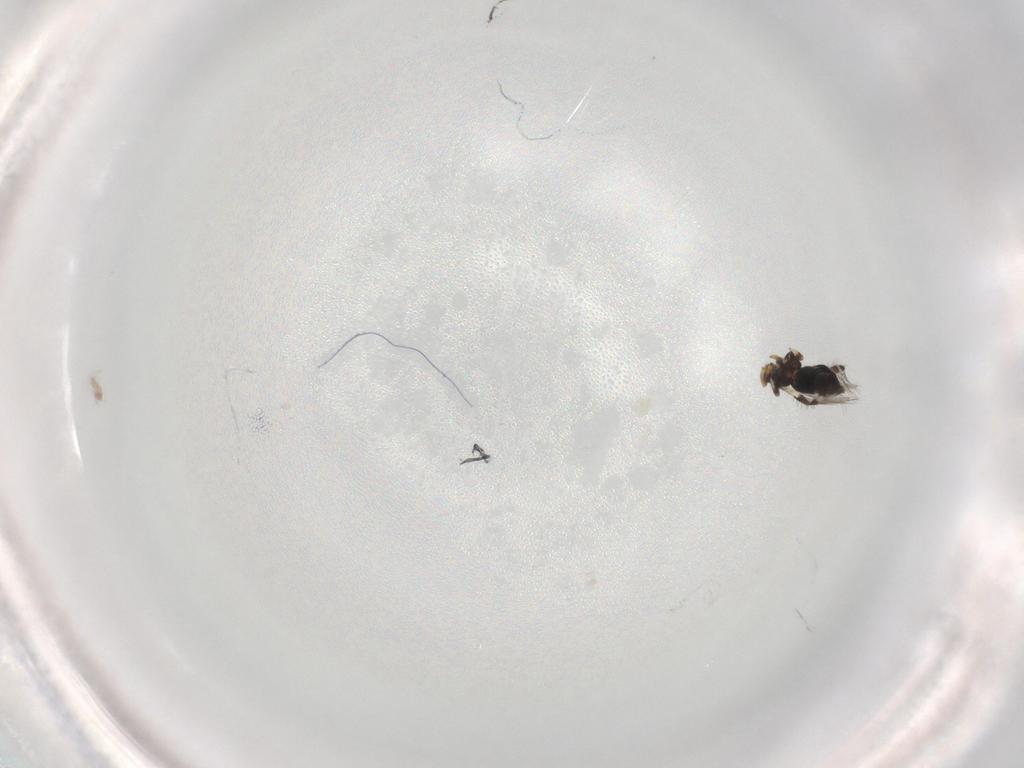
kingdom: Animalia
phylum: Arthropoda
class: Insecta
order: Thysanoptera
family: Thripidae
